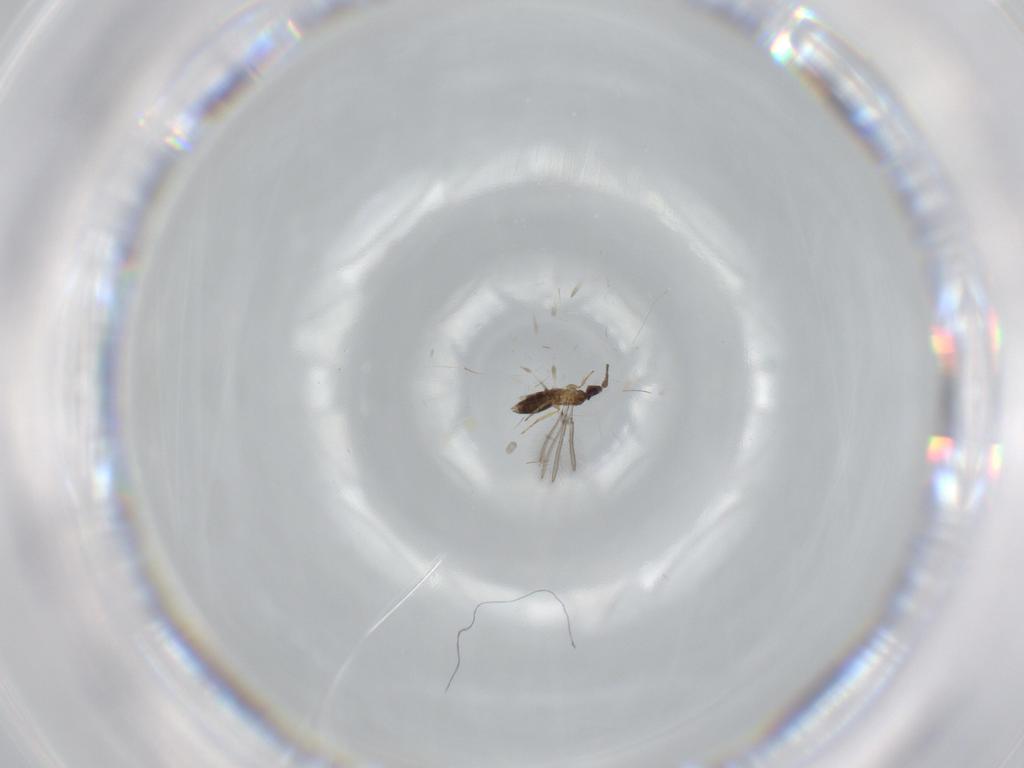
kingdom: Animalia
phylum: Arthropoda
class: Insecta
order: Hymenoptera
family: Mymaridae
